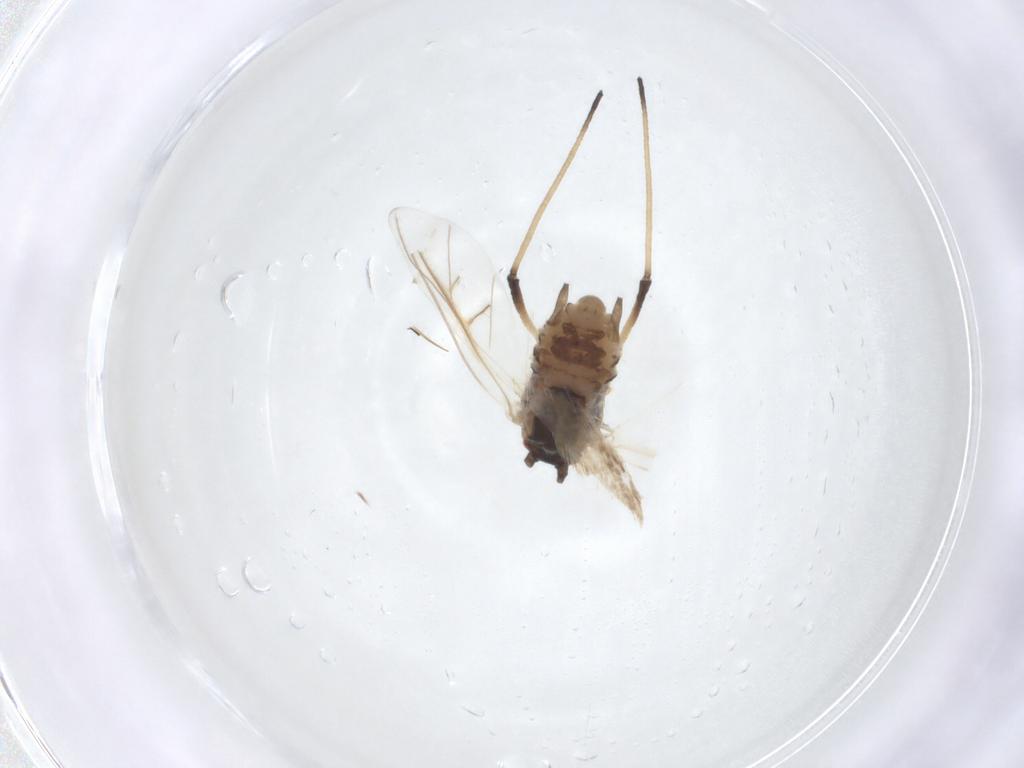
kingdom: Animalia
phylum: Arthropoda
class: Insecta
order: Hemiptera
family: Aphididae
